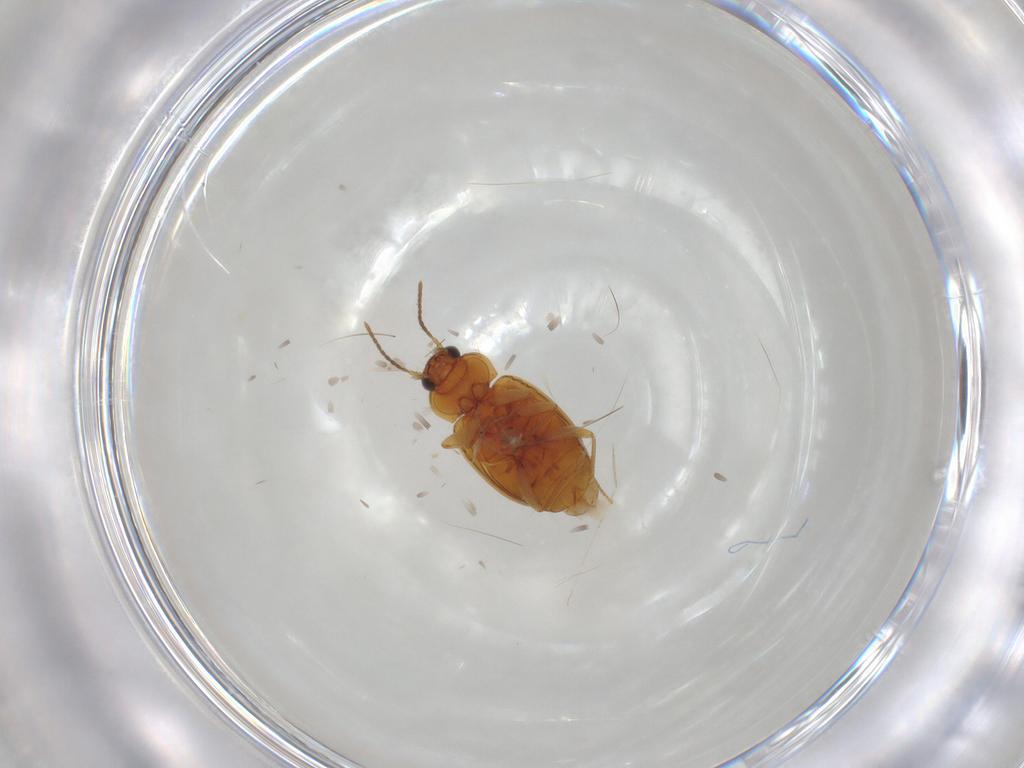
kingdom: Animalia
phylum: Arthropoda
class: Insecta
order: Coleoptera
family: Carabidae
